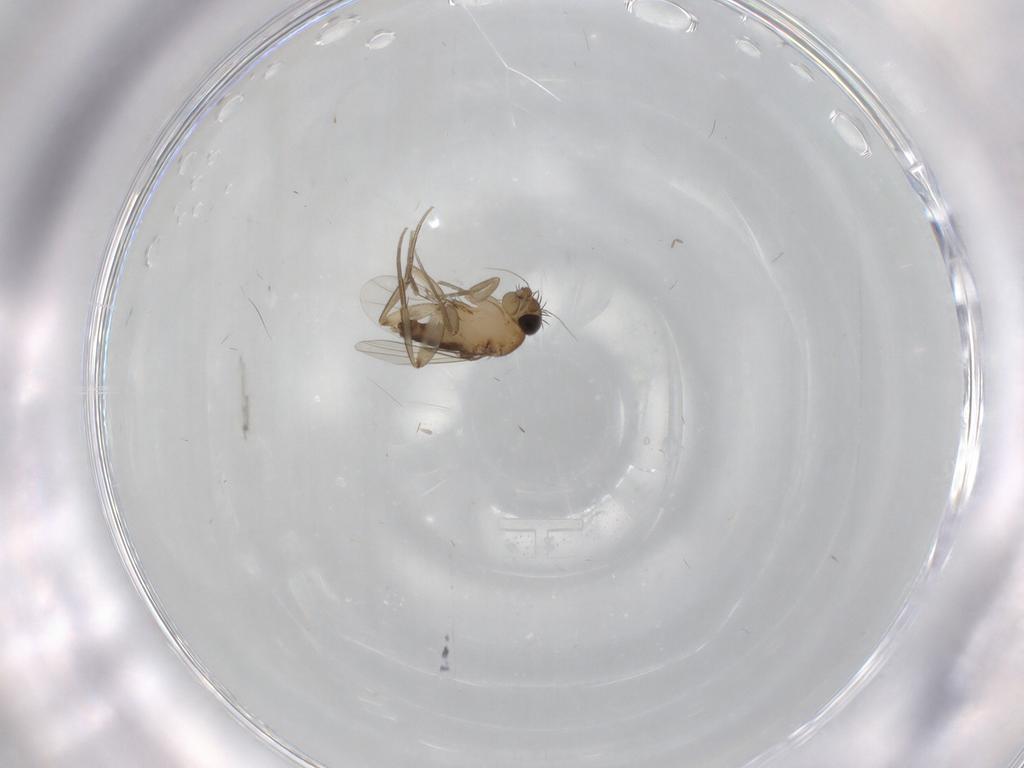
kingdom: Animalia
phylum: Arthropoda
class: Insecta
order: Diptera
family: Phoridae
